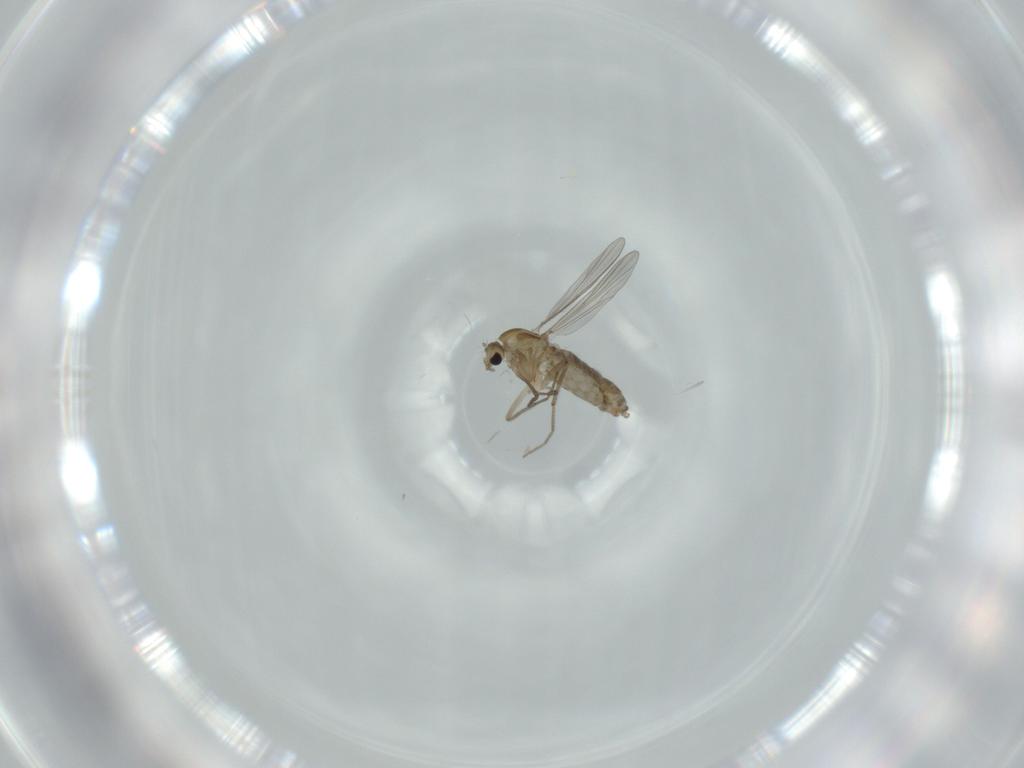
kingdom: Animalia
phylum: Arthropoda
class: Insecta
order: Diptera
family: Chironomidae
